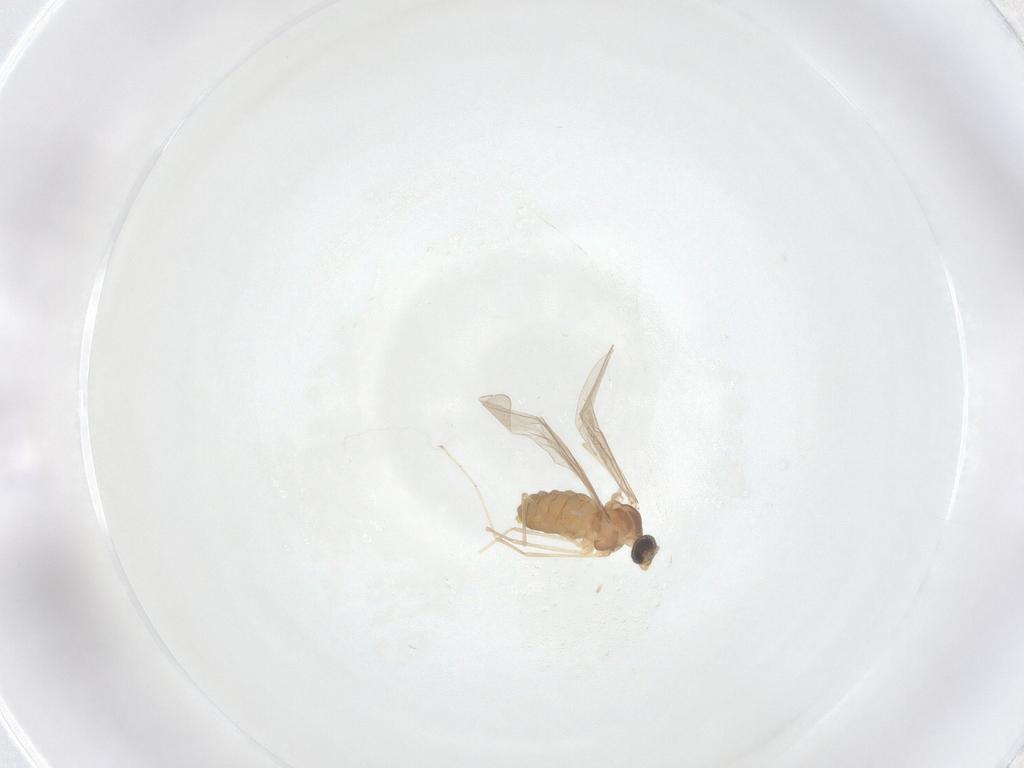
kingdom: Animalia
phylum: Arthropoda
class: Insecta
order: Diptera
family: Cecidomyiidae
